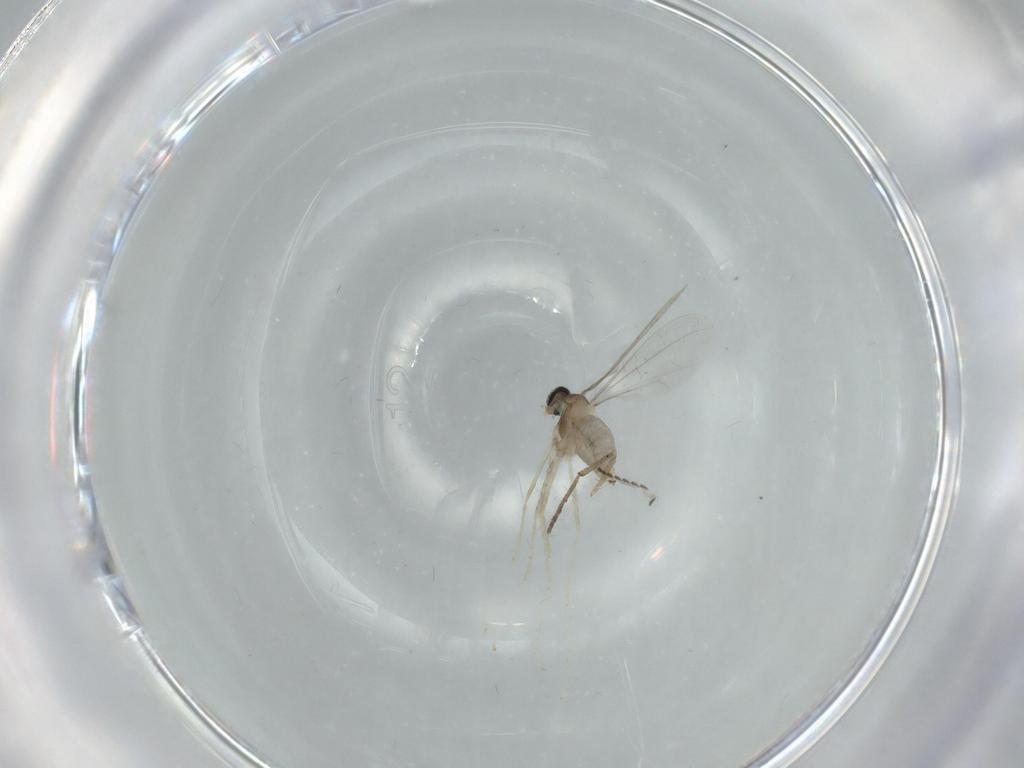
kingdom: Animalia
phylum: Arthropoda
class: Insecta
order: Diptera
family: Cecidomyiidae
